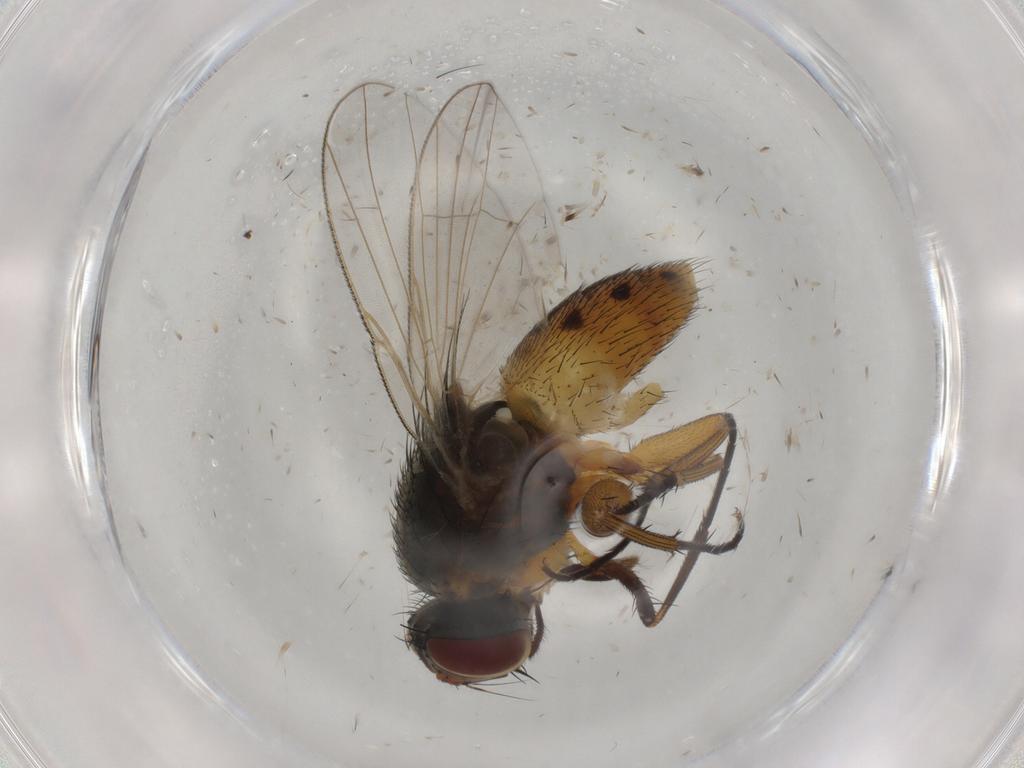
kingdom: Animalia
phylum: Arthropoda
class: Insecta
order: Diptera
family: Muscidae
